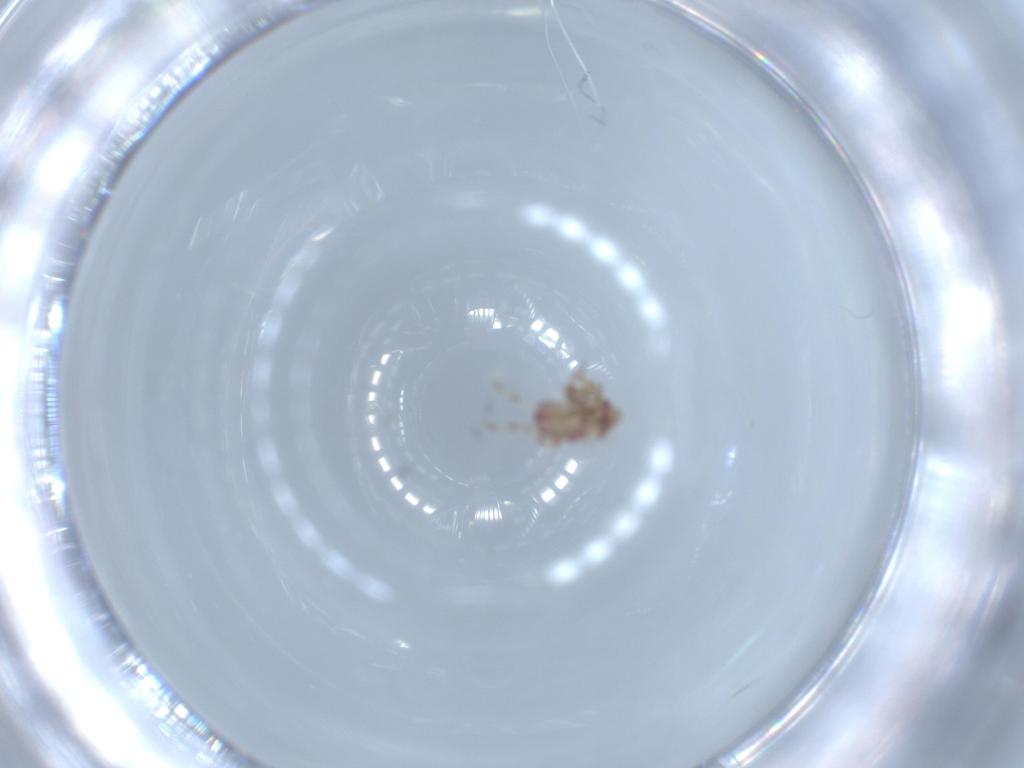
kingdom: Animalia
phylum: Arthropoda
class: Insecta
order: Hemiptera
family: Miridae
